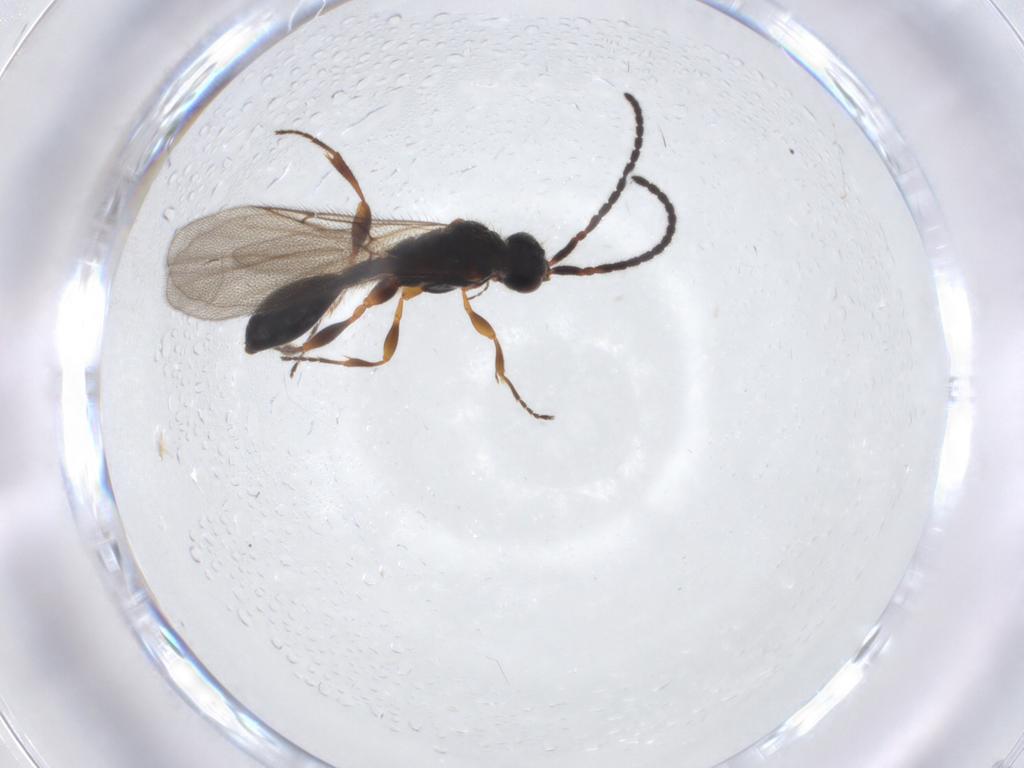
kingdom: Animalia
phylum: Arthropoda
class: Insecta
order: Hymenoptera
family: Diapriidae
